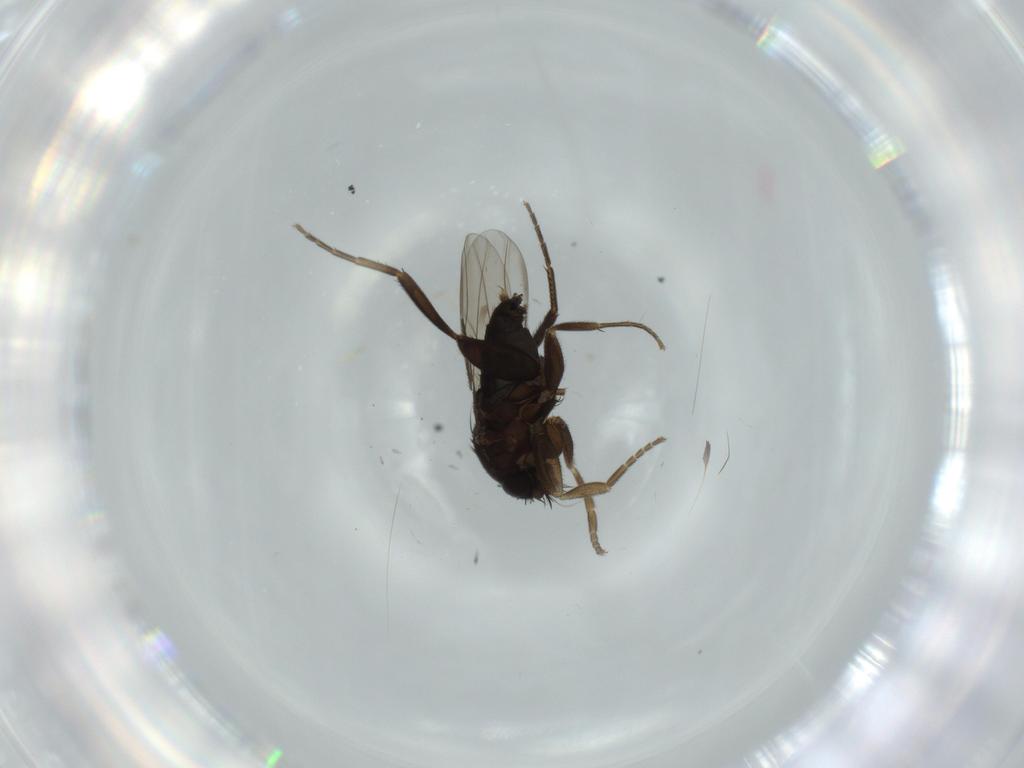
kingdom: Animalia
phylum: Arthropoda
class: Insecta
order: Diptera
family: Phoridae
